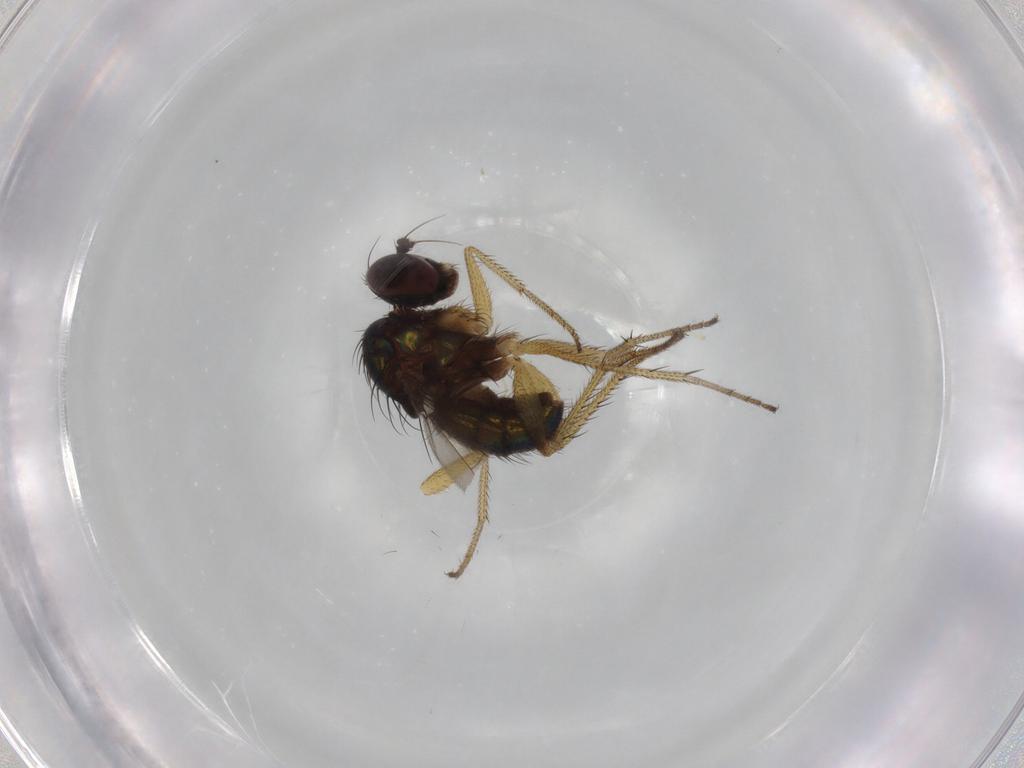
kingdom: Animalia
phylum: Arthropoda
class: Insecta
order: Diptera
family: Dolichopodidae
